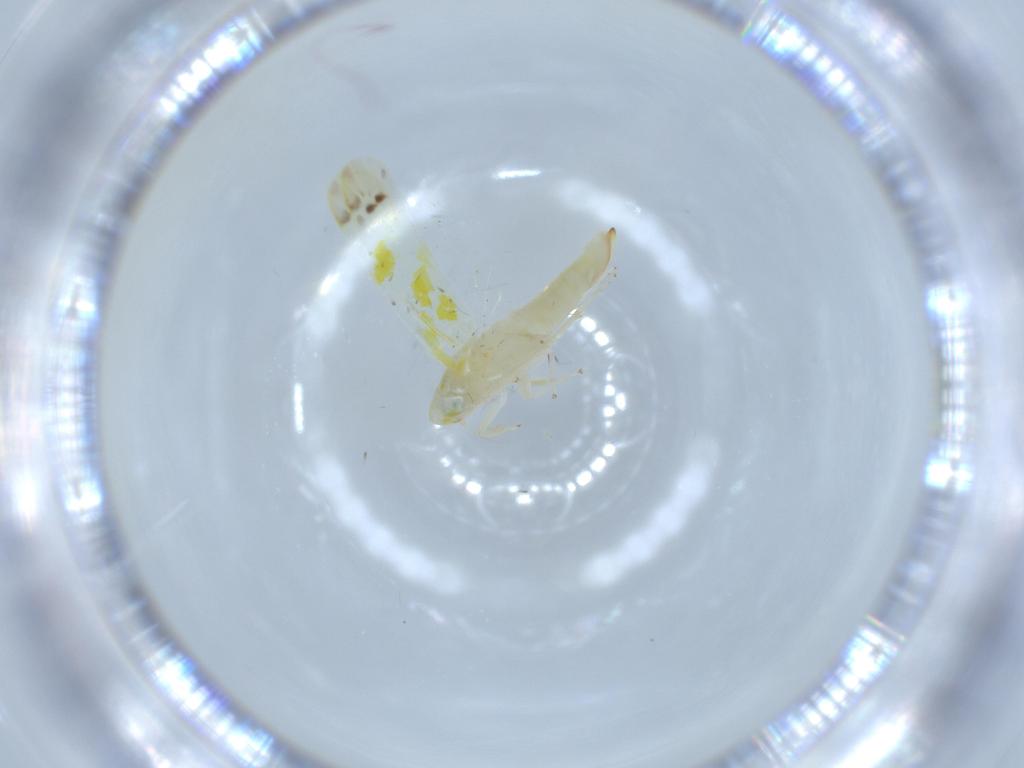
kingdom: Animalia
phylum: Arthropoda
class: Insecta
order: Hemiptera
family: Cicadellidae
